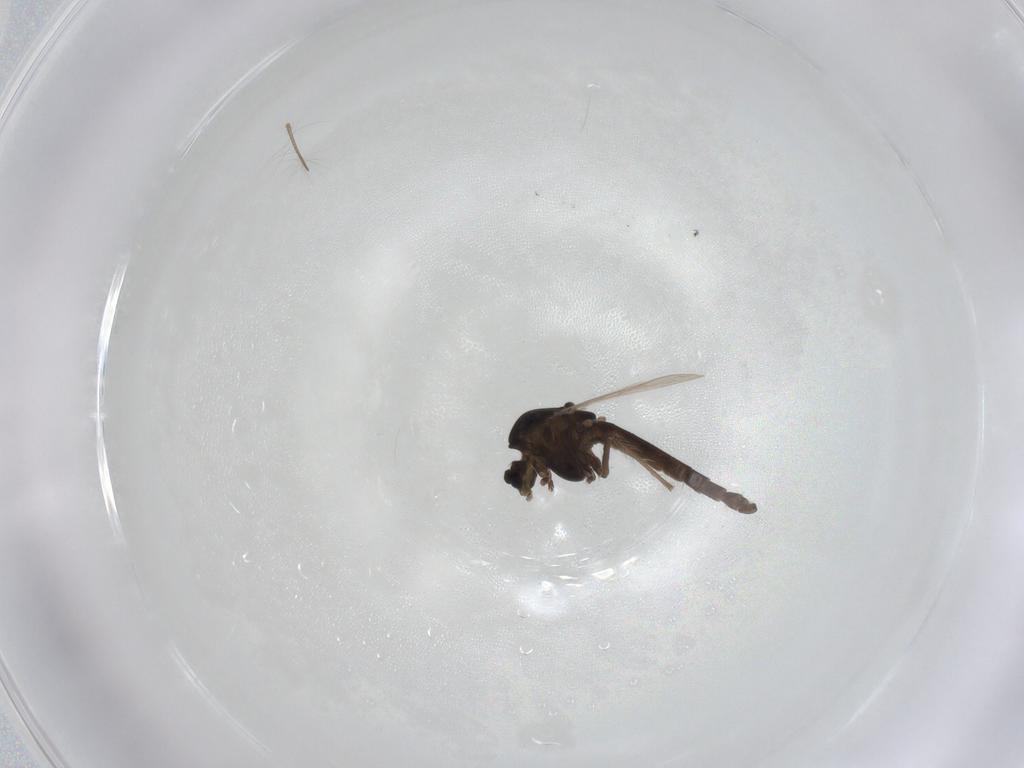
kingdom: Animalia
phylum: Arthropoda
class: Insecta
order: Diptera
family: Chironomidae
